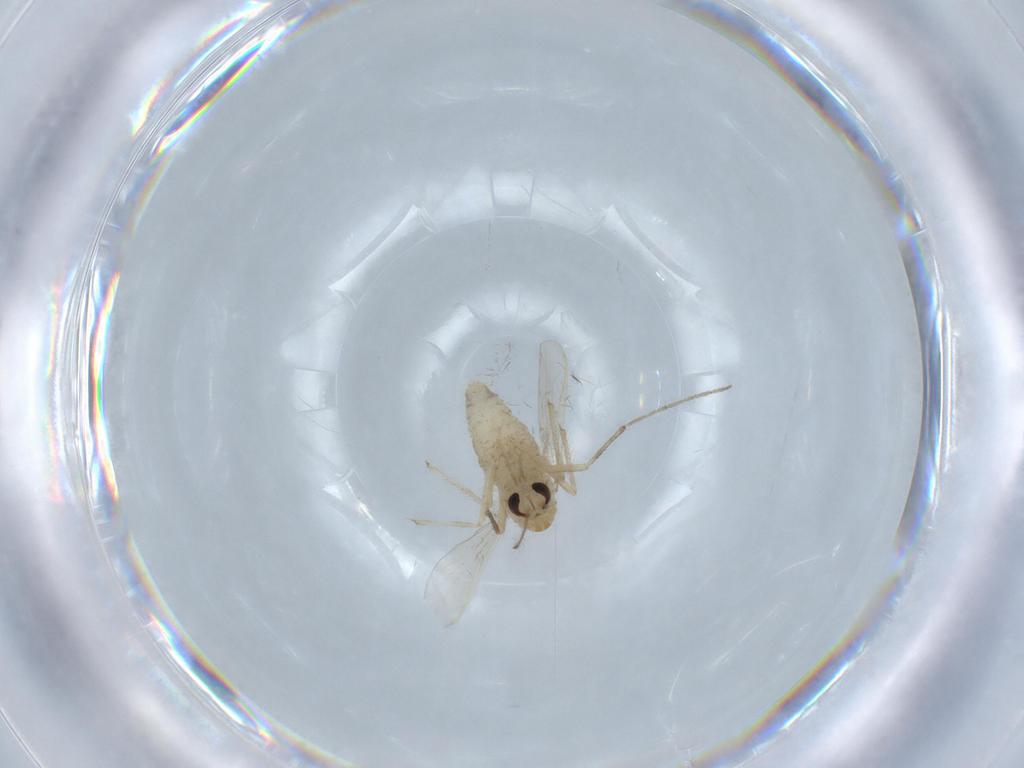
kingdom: Animalia
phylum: Arthropoda
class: Insecta
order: Diptera
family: Chironomidae
